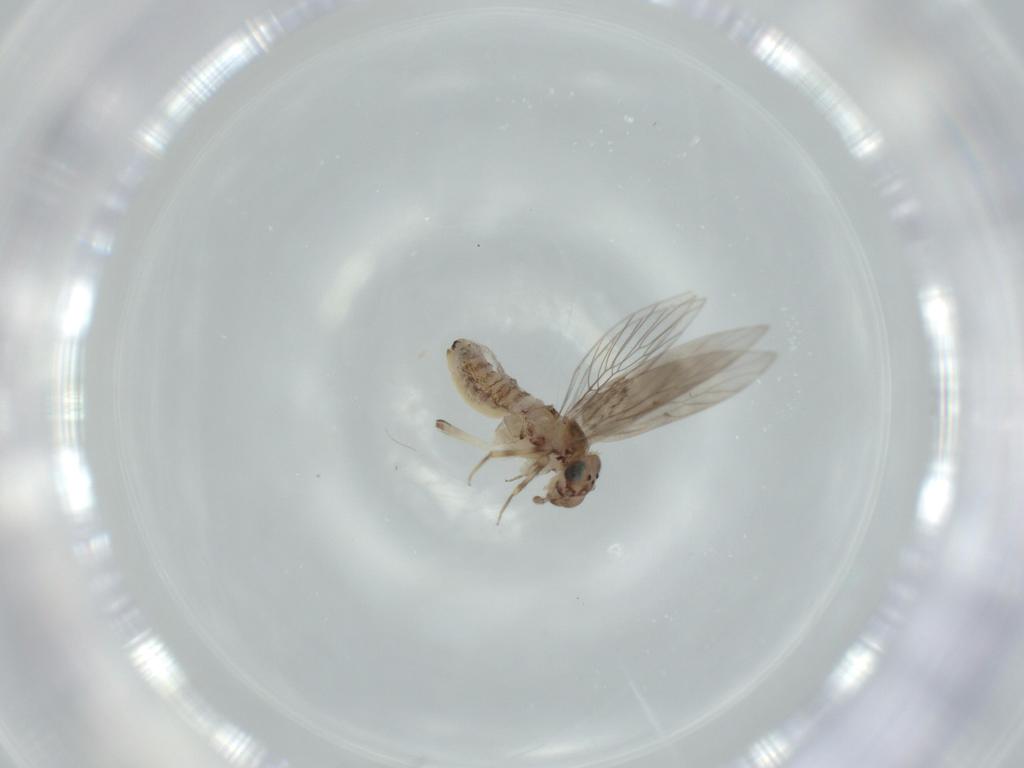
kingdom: Animalia
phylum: Arthropoda
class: Insecta
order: Psocodea
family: Lepidopsocidae
